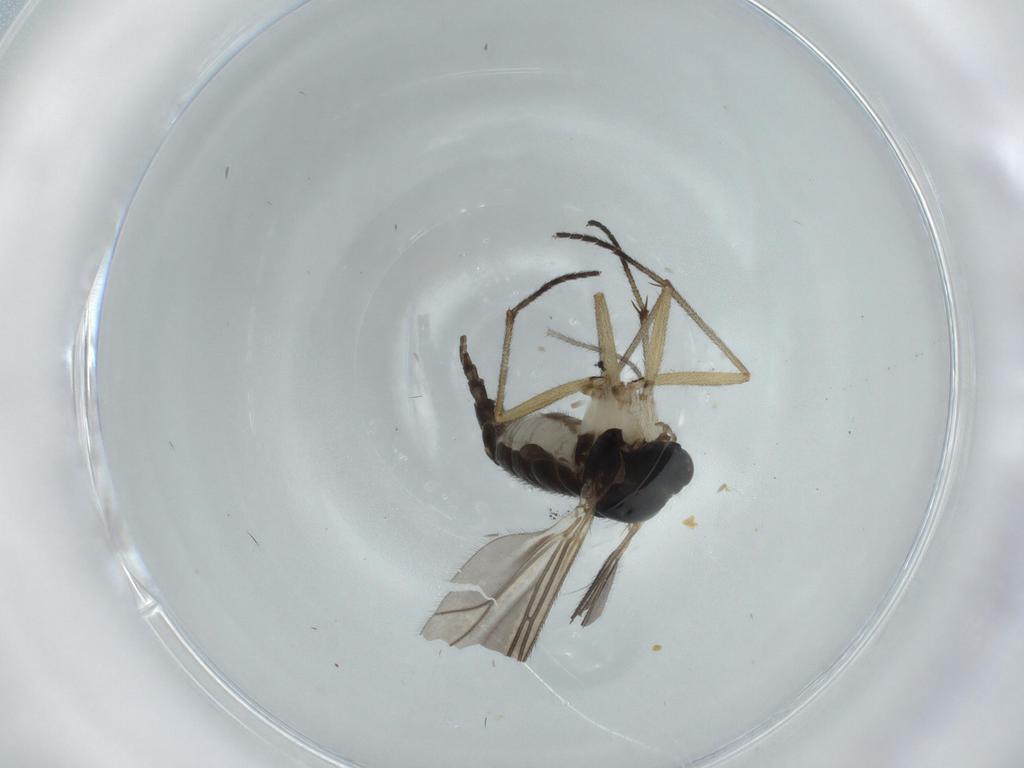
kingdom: Animalia
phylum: Arthropoda
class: Insecta
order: Diptera
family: Sciaridae
